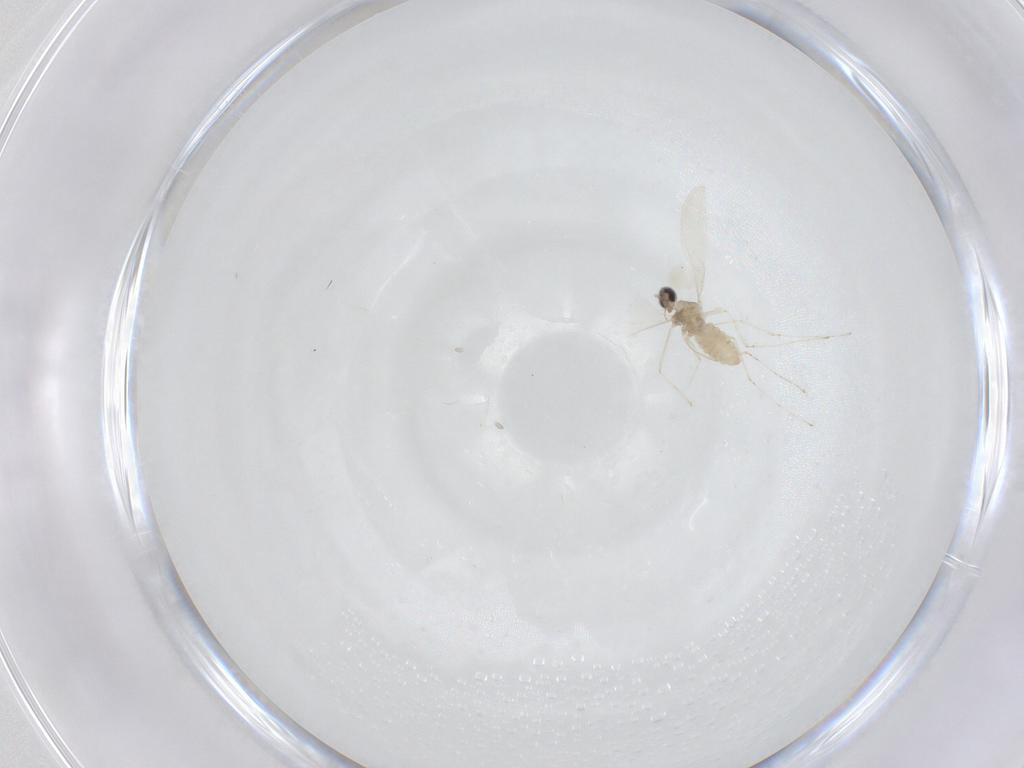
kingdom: Animalia
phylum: Arthropoda
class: Insecta
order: Diptera
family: Cecidomyiidae
